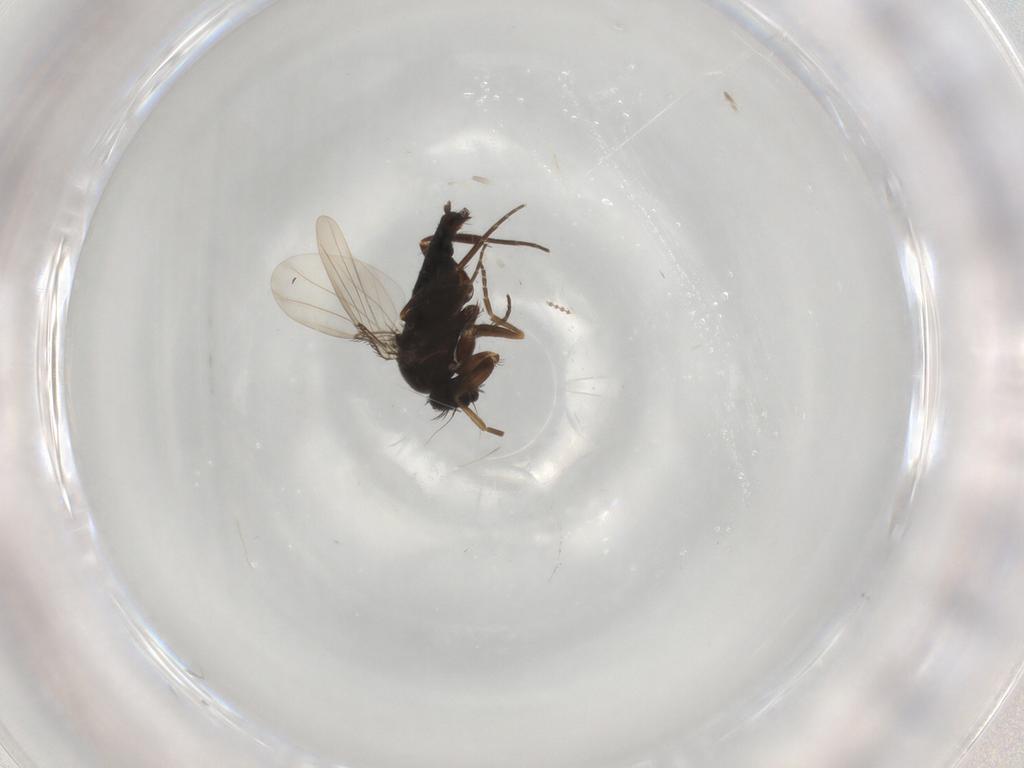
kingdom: Animalia
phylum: Arthropoda
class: Insecta
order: Diptera
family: Phoridae
